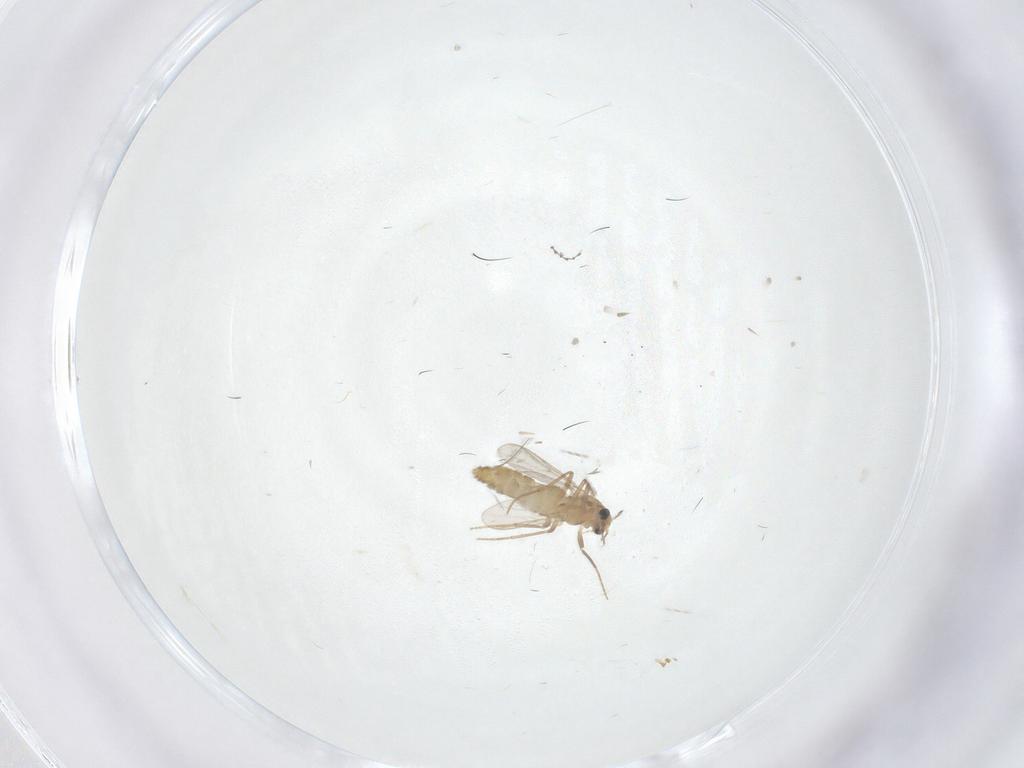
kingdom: Animalia
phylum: Arthropoda
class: Insecta
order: Diptera
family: Chironomidae
